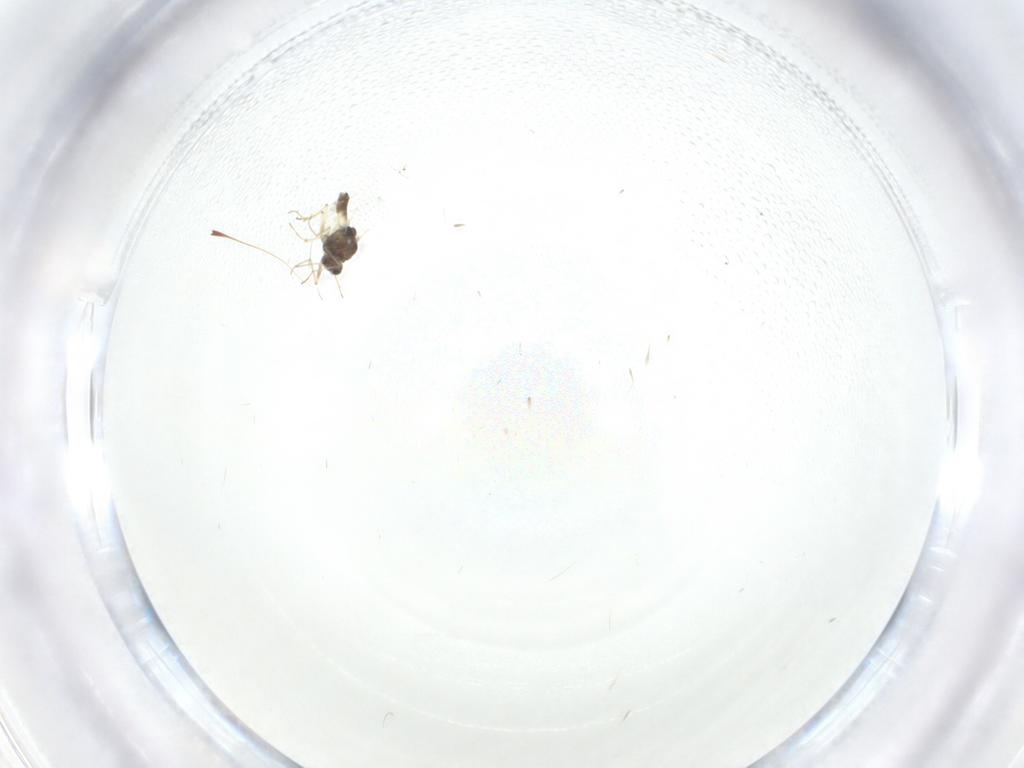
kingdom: Animalia
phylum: Arthropoda
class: Insecta
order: Diptera
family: Chironomidae
